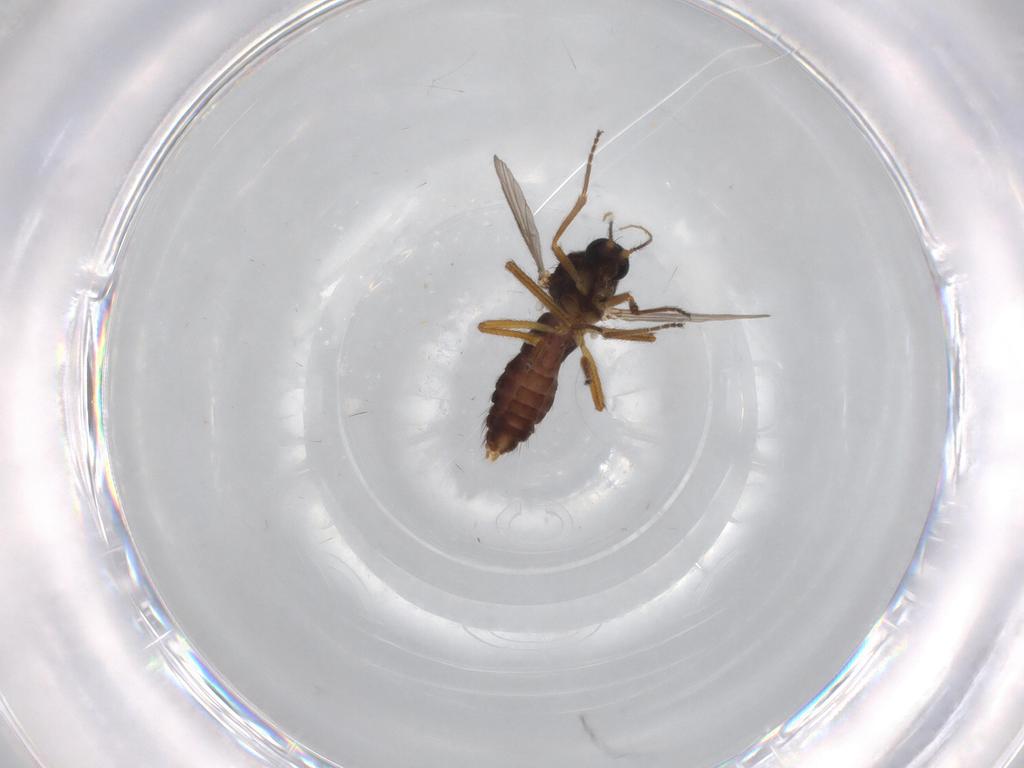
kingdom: Animalia
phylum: Arthropoda
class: Insecta
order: Diptera
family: Ceratopogonidae
